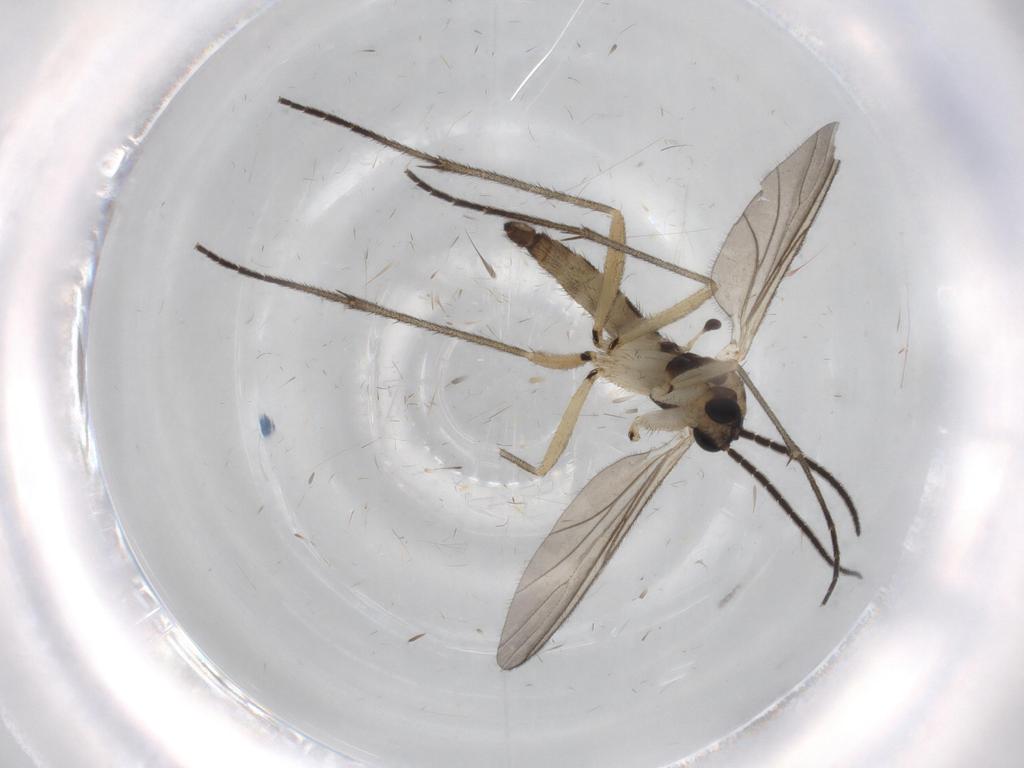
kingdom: Animalia
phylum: Arthropoda
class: Insecta
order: Diptera
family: Sciaridae
